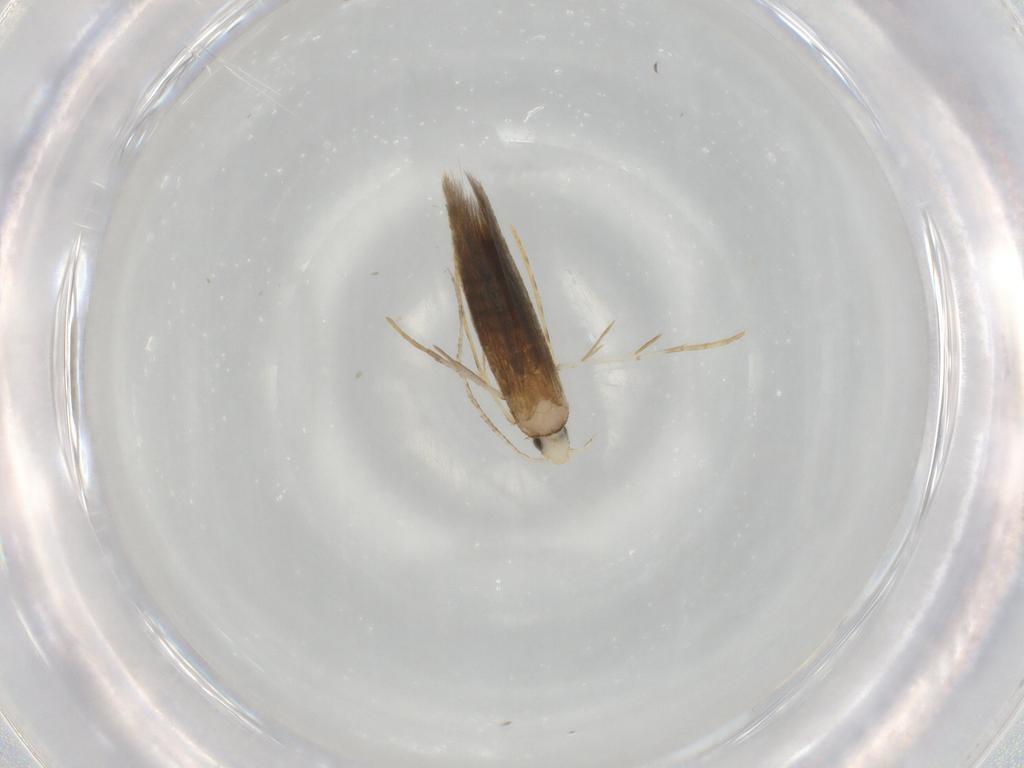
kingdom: Animalia
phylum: Arthropoda
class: Insecta
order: Lepidoptera
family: Psychidae
